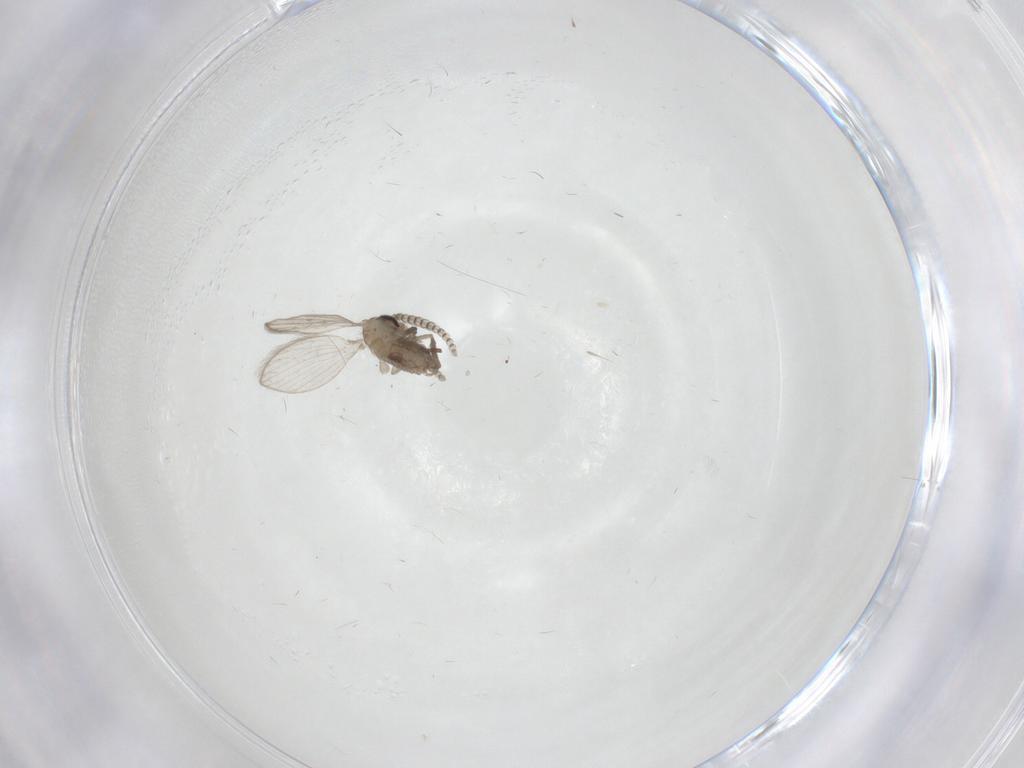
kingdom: Animalia
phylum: Arthropoda
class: Insecta
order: Diptera
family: Psychodidae
